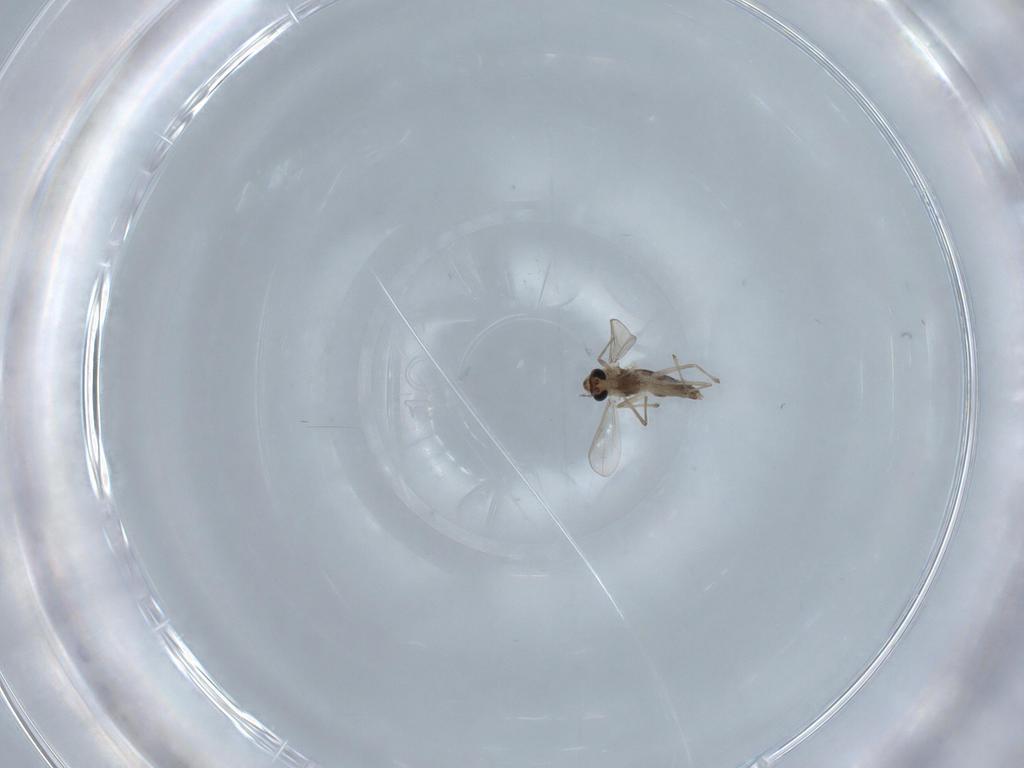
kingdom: Animalia
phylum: Arthropoda
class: Insecta
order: Diptera
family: Chironomidae
